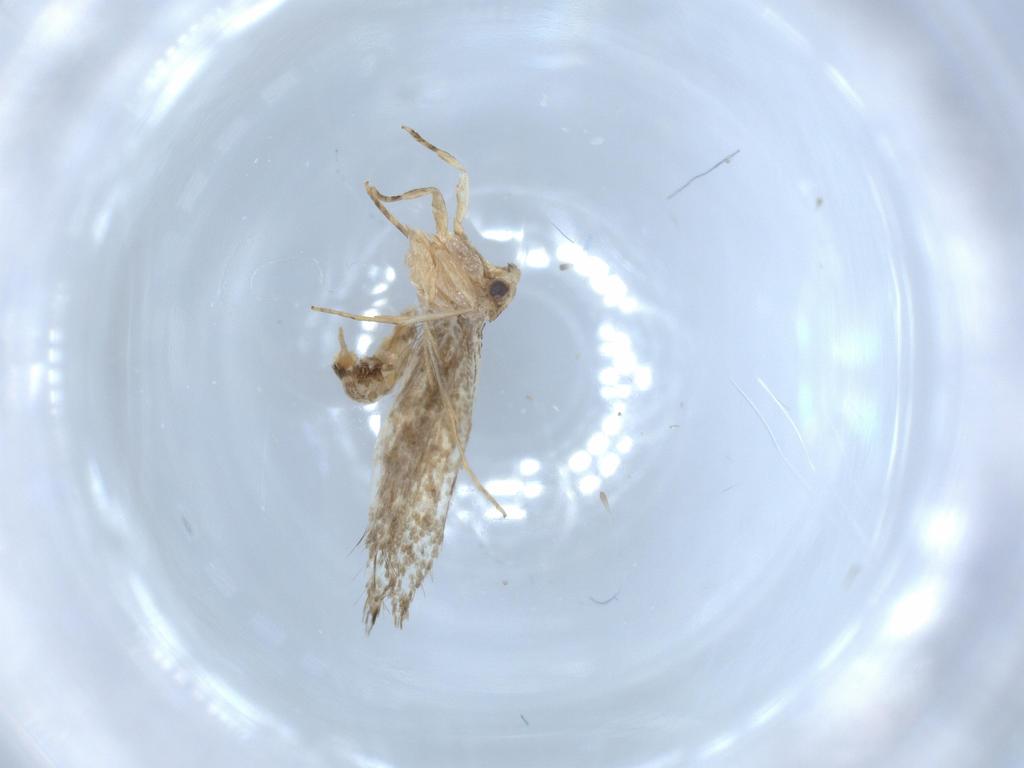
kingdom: Animalia
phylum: Arthropoda
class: Insecta
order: Lepidoptera
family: Tineidae
